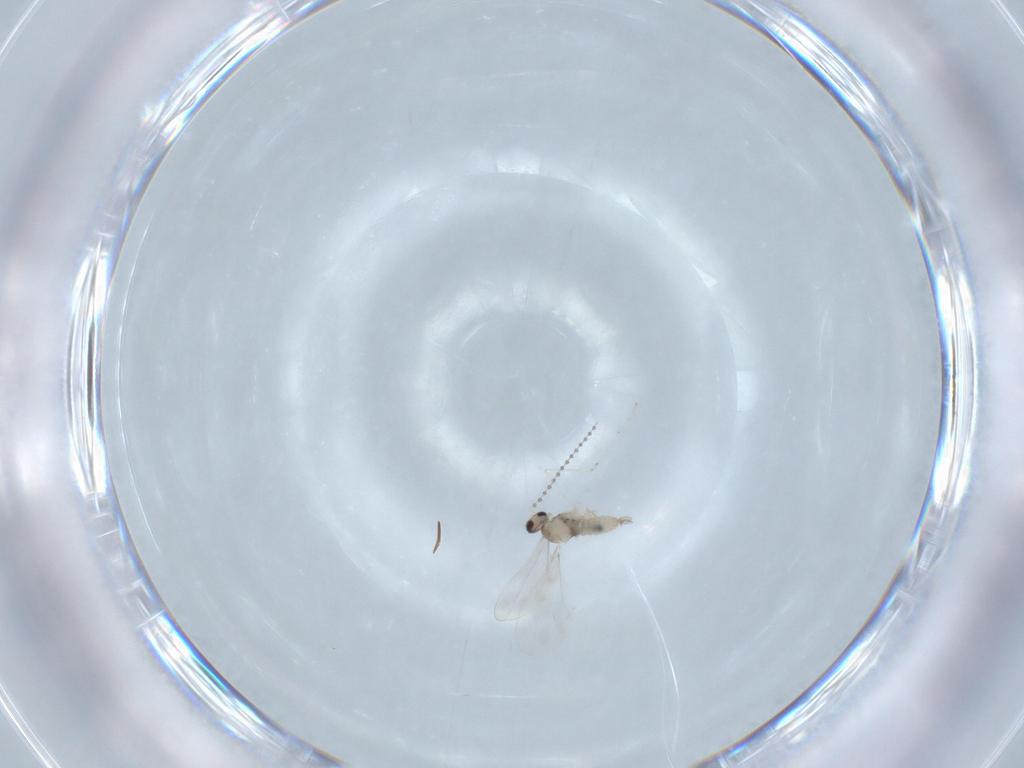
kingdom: Animalia
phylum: Arthropoda
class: Insecta
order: Diptera
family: Cecidomyiidae
